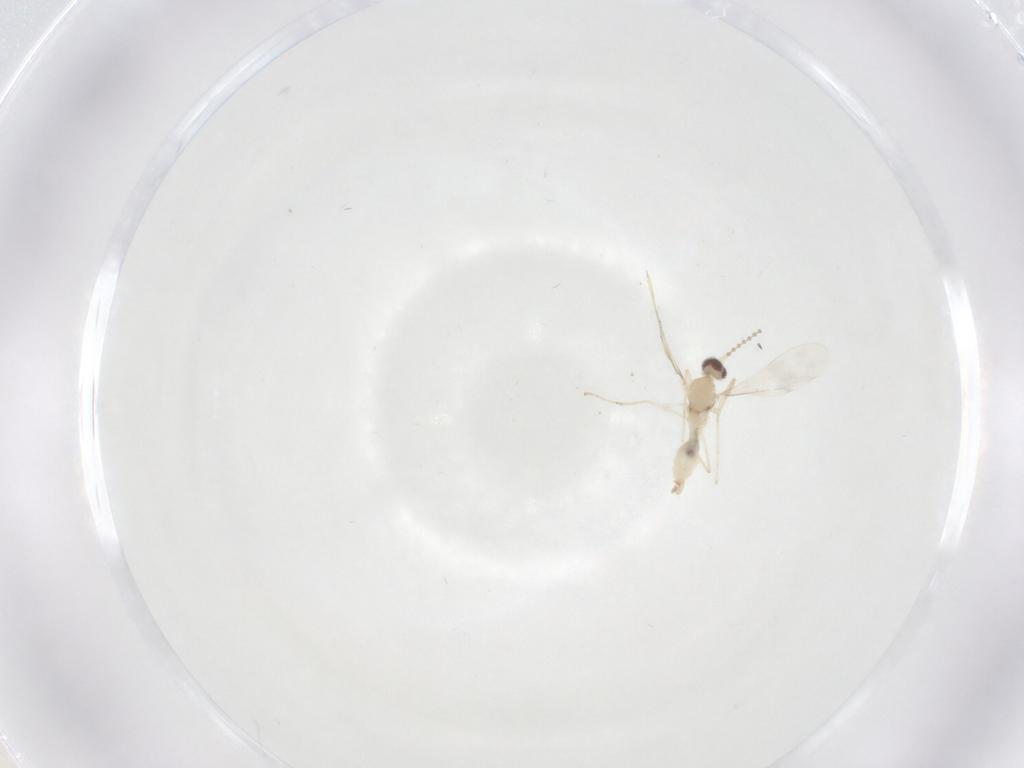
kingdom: Animalia
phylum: Arthropoda
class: Insecta
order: Diptera
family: Cecidomyiidae
